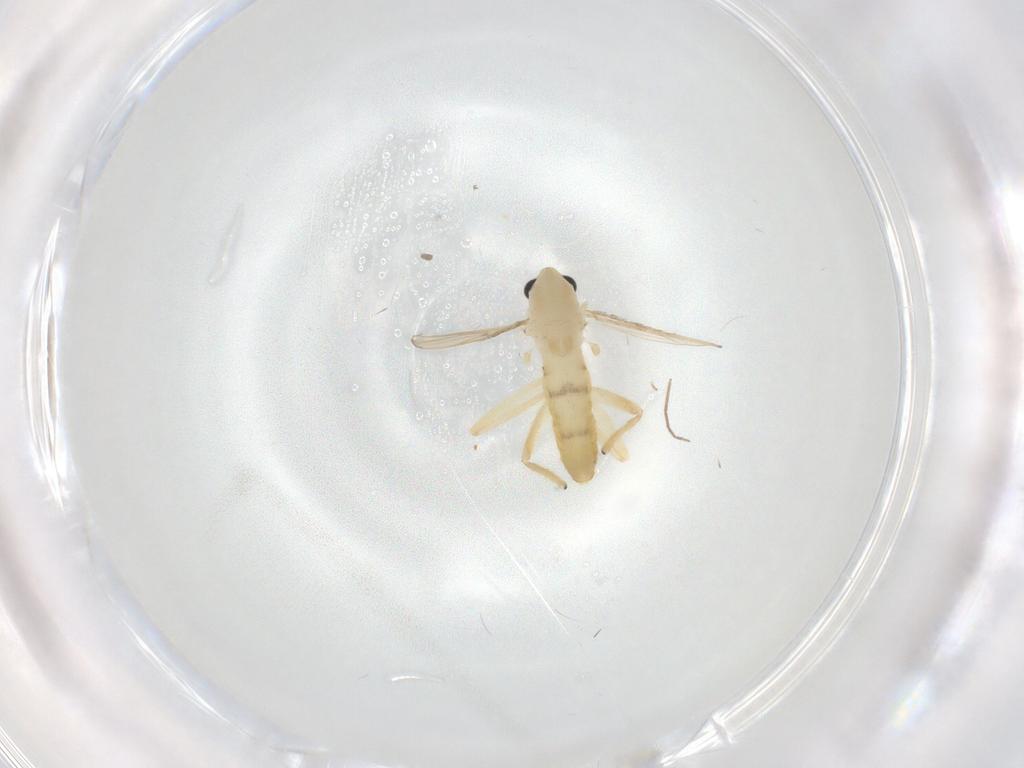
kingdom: Animalia
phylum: Arthropoda
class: Insecta
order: Diptera
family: Chironomidae
